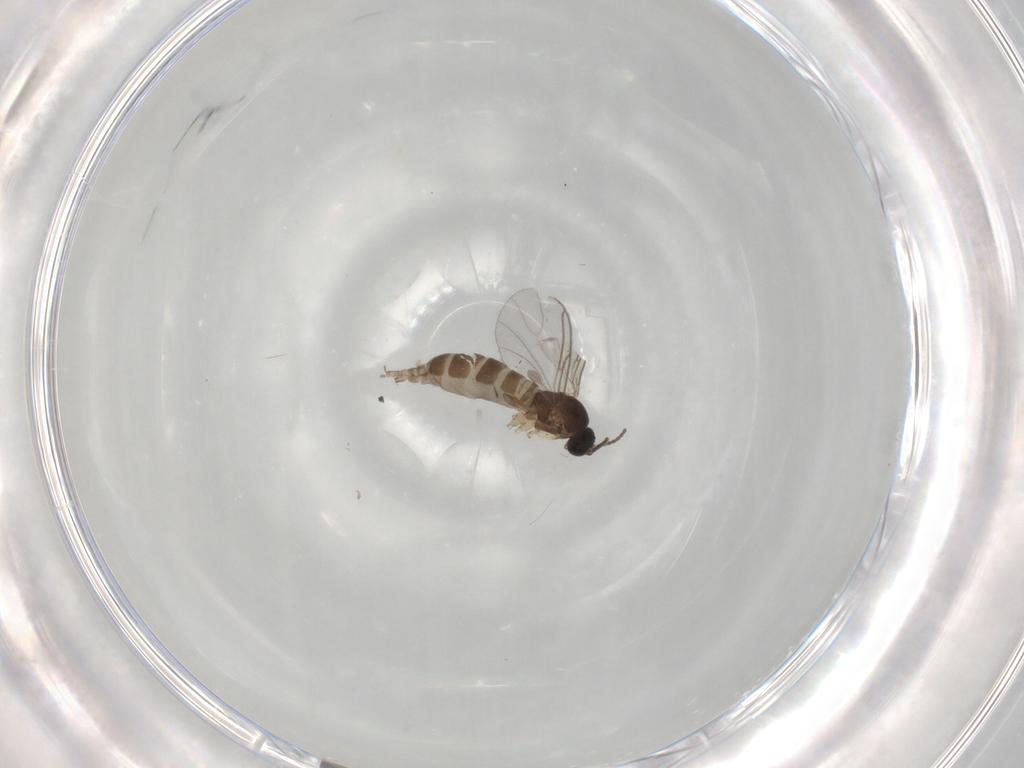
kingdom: Animalia
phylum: Arthropoda
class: Insecta
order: Diptera
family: Sciaridae
